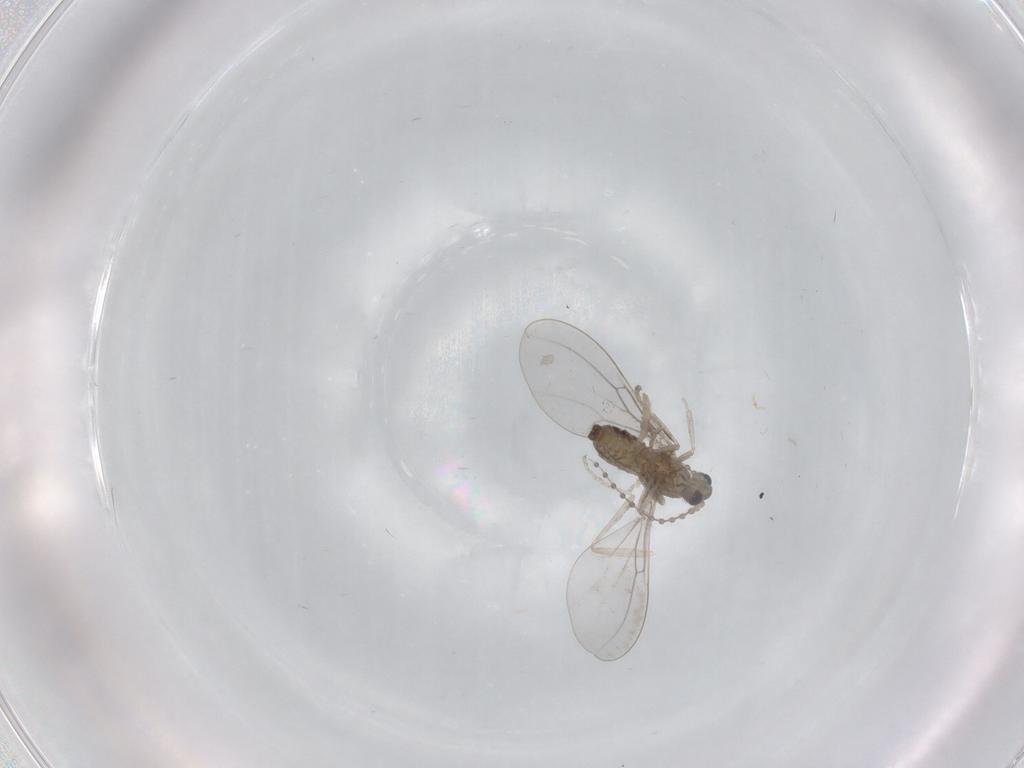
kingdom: Animalia
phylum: Arthropoda
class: Insecta
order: Diptera
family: Cecidomyiidae
